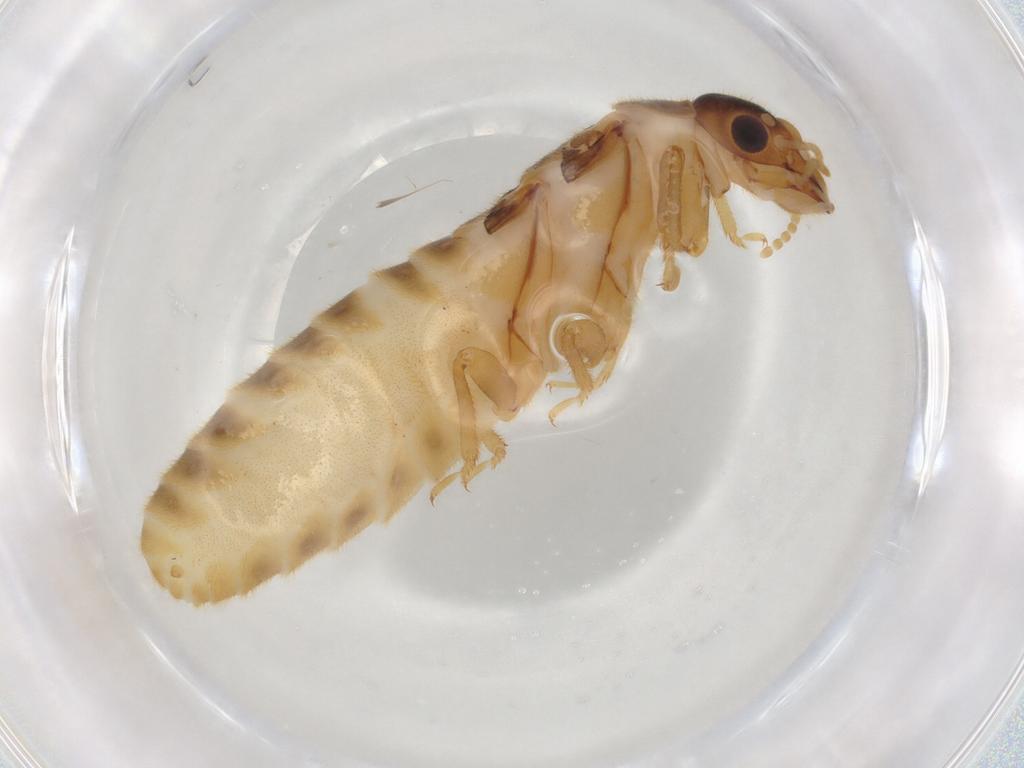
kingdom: Animalia
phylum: Arthropoda
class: Insecta
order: Blattodea
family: Termitidae
